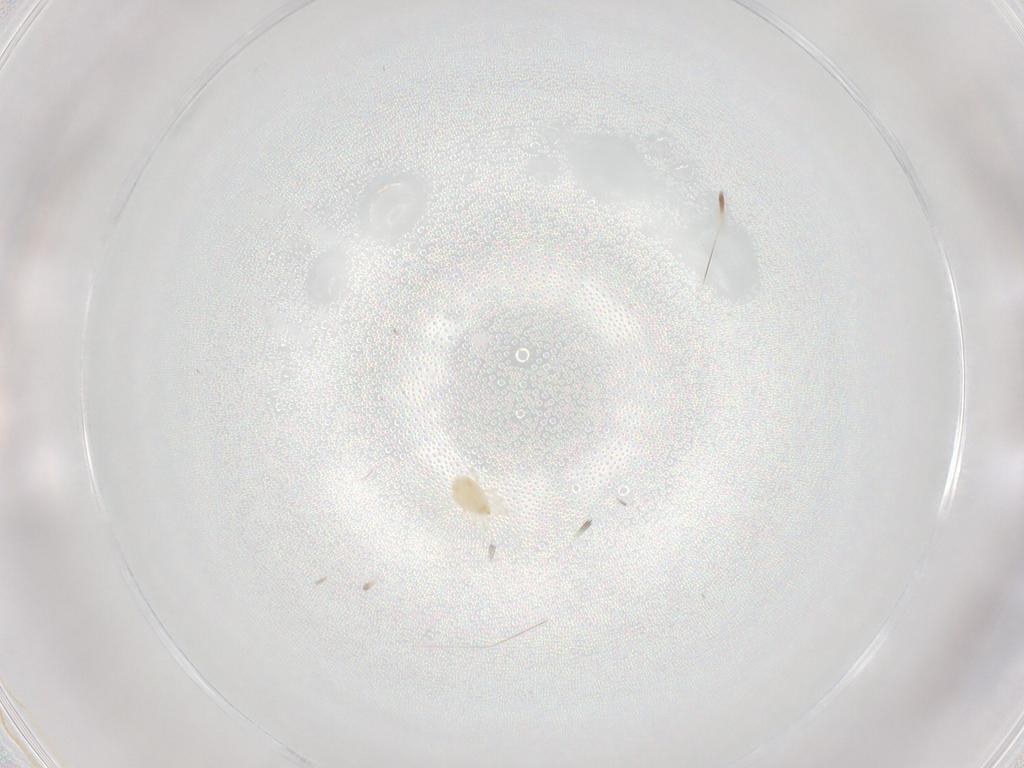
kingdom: Animalia
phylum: Arthropoda
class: Arachnida
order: Mesostigmata
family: Phytoseiidae
